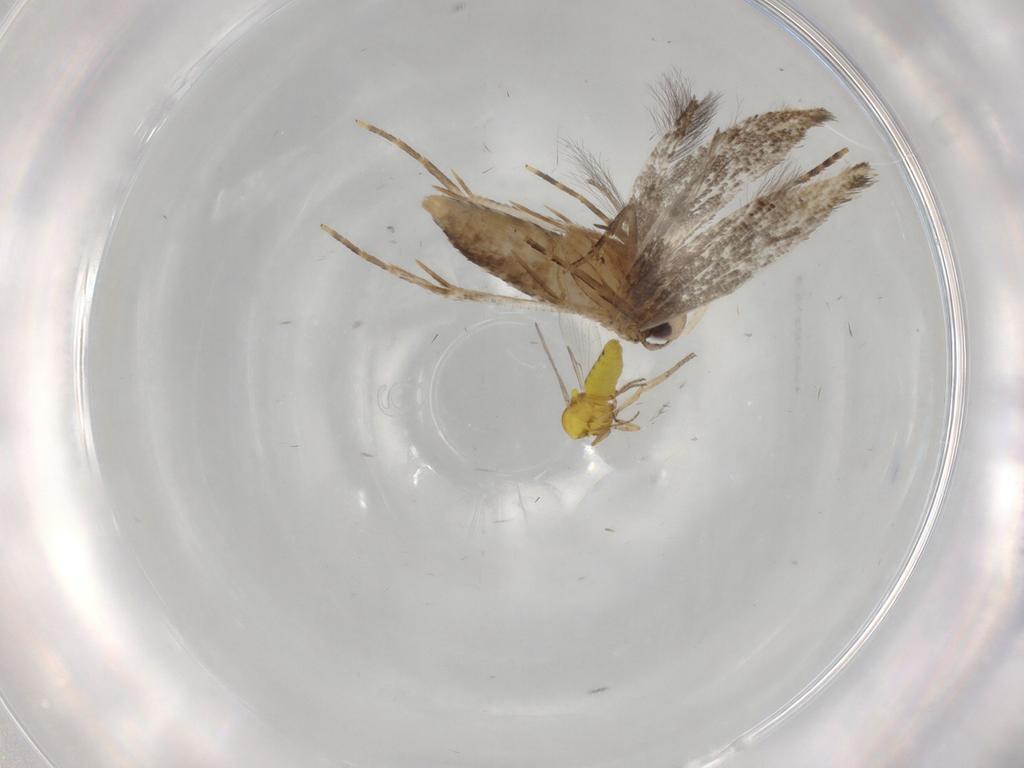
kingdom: Animalia
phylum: Arthropoda
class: Insecta
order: Lepidoptera
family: Cosmopterigidae
